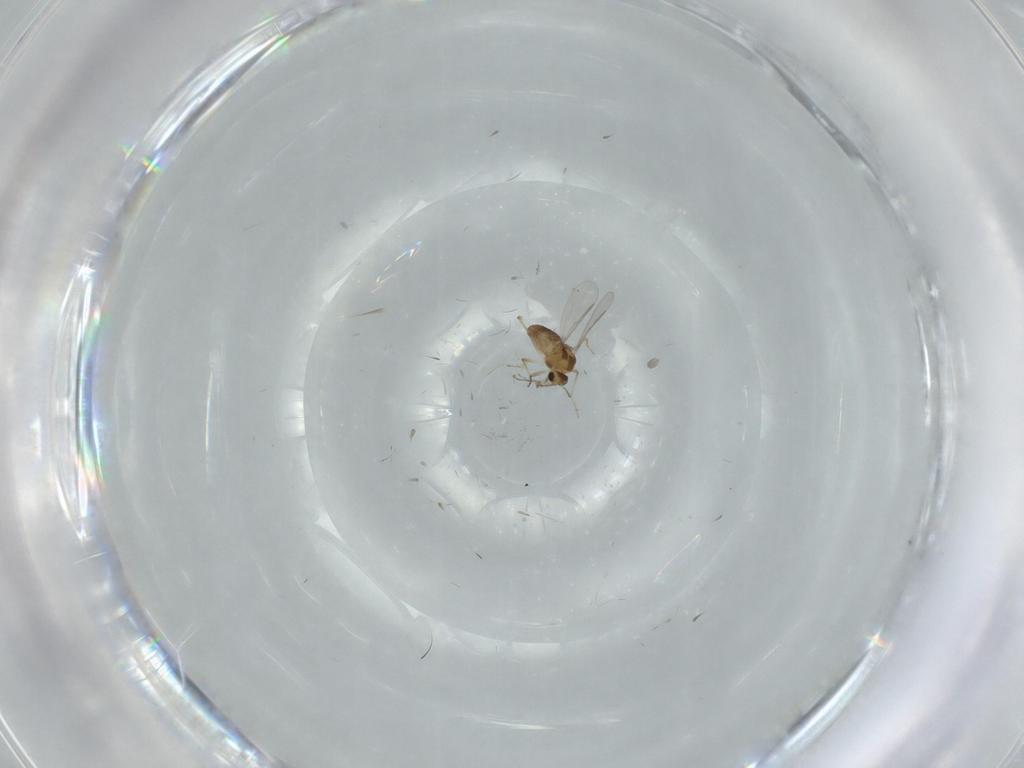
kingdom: Animalia
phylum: Arthropoda
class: Insecta
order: Diptera
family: Chironomidae
